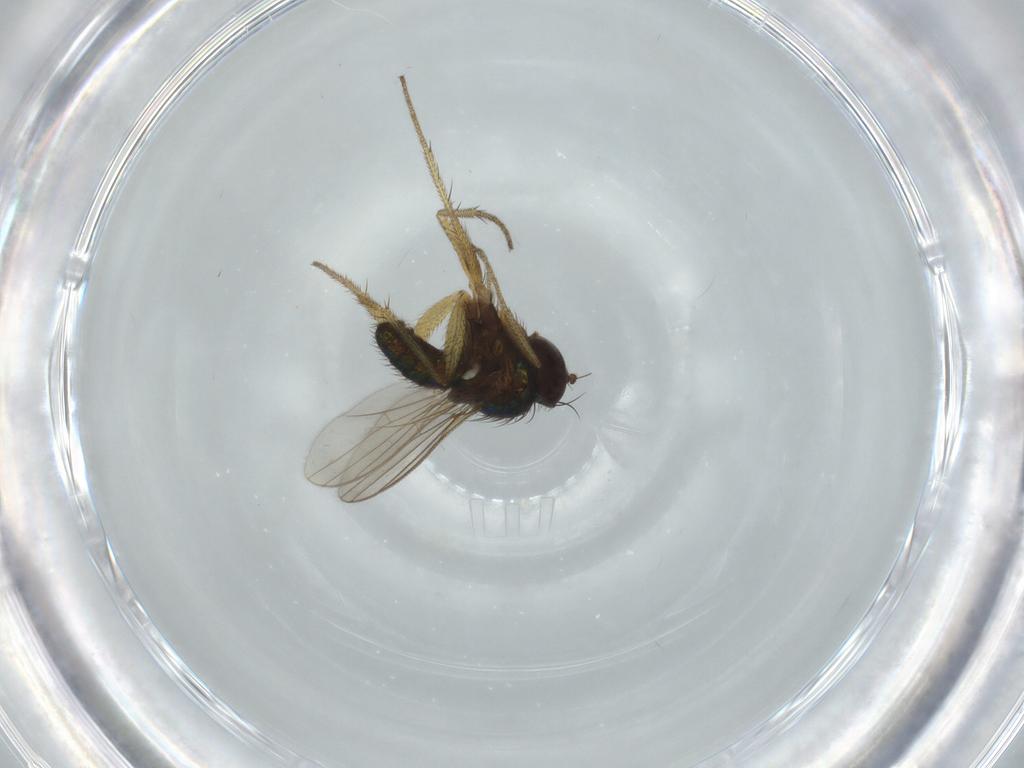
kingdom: Animalia
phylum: Arthropoda
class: Insecta
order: Diptera
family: Dolichopodidae
